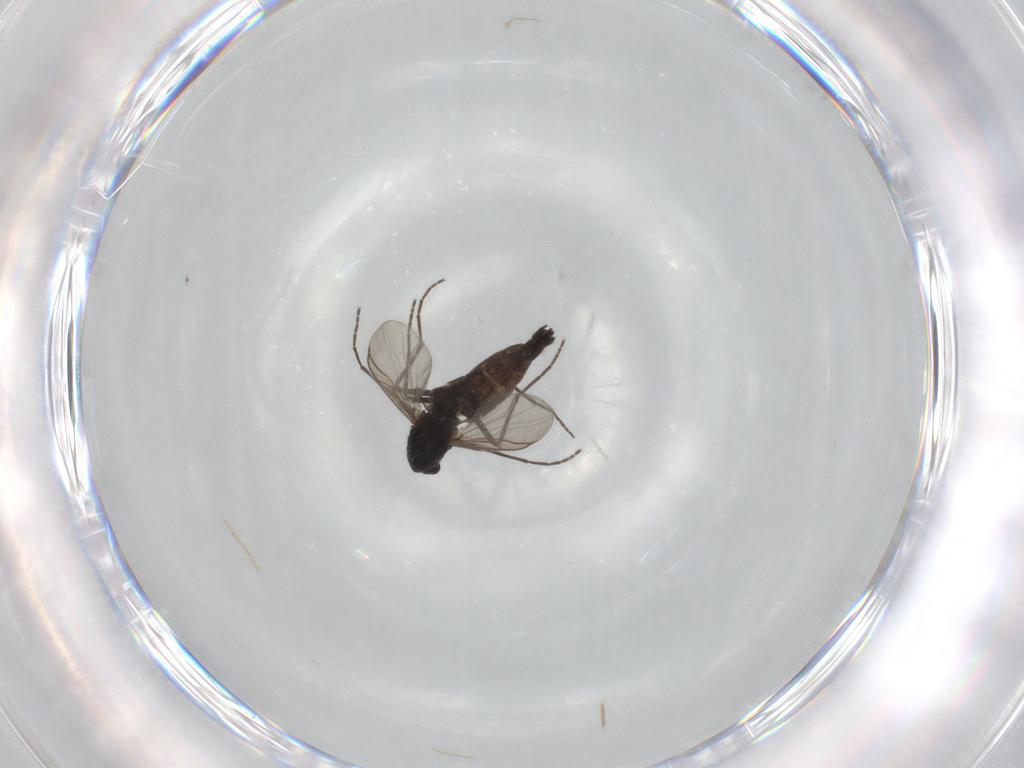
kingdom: Animalia
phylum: Arthropoda
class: Insecta
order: Diptera
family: Chironomidae
